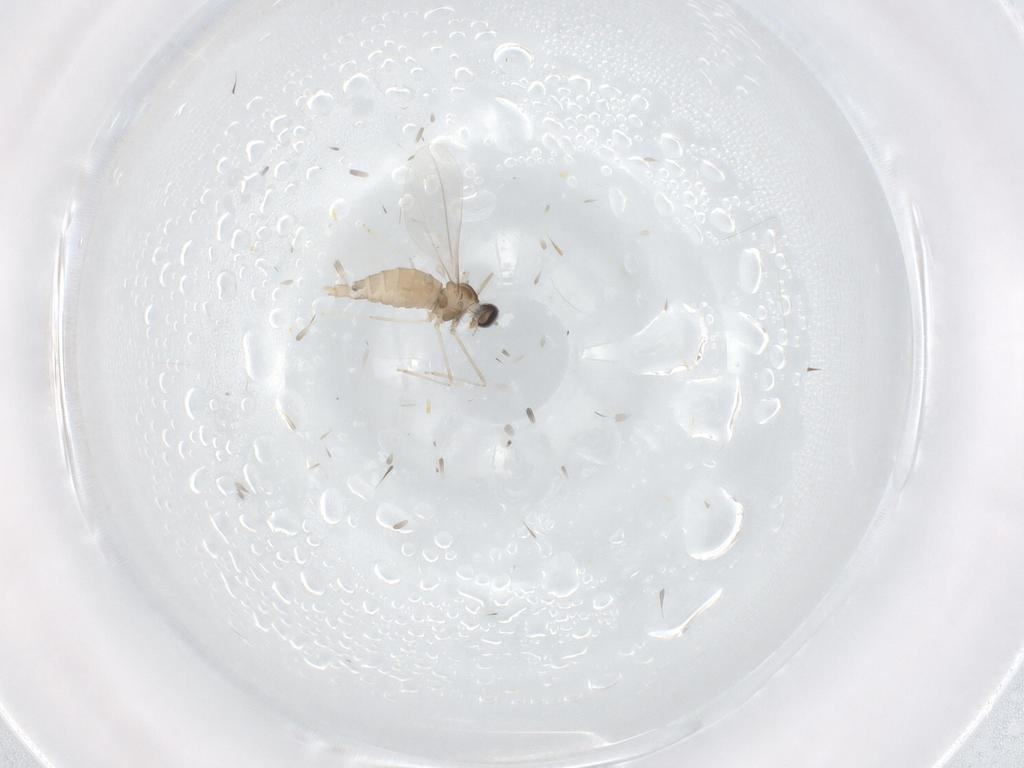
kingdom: Animalia
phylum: Arthropoda
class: Insecta
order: Diptera
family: Cecidomyiidae
